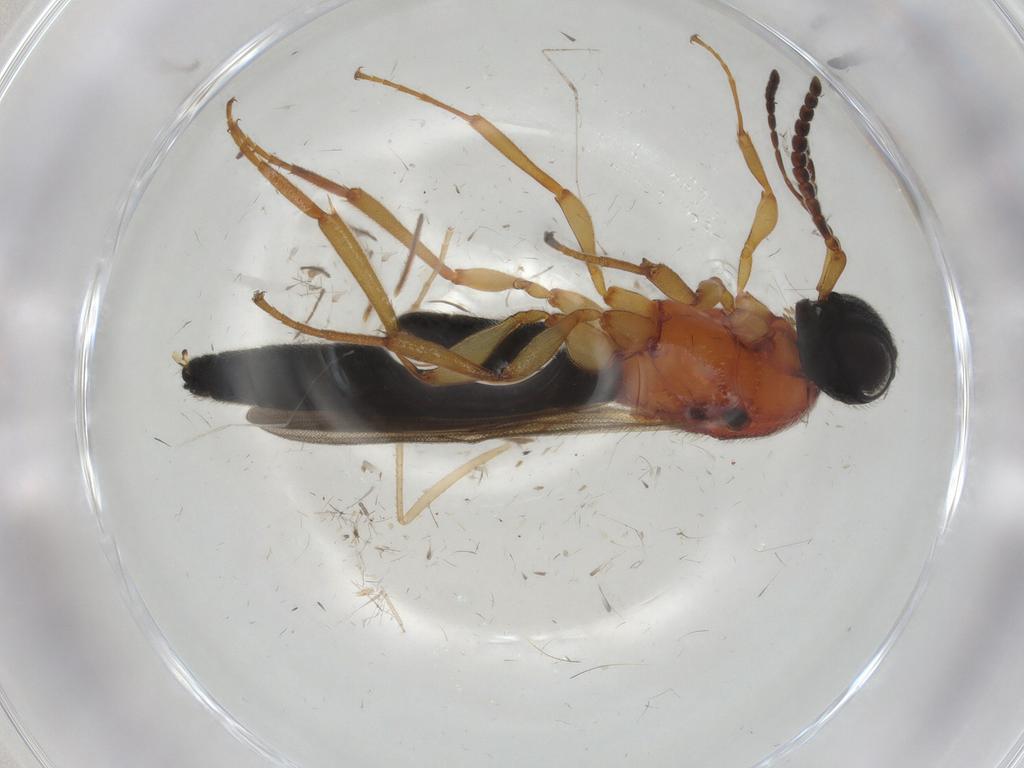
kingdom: Animalia
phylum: Arthropoda
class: Insecta
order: Hymenoptera
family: Scelionidae
